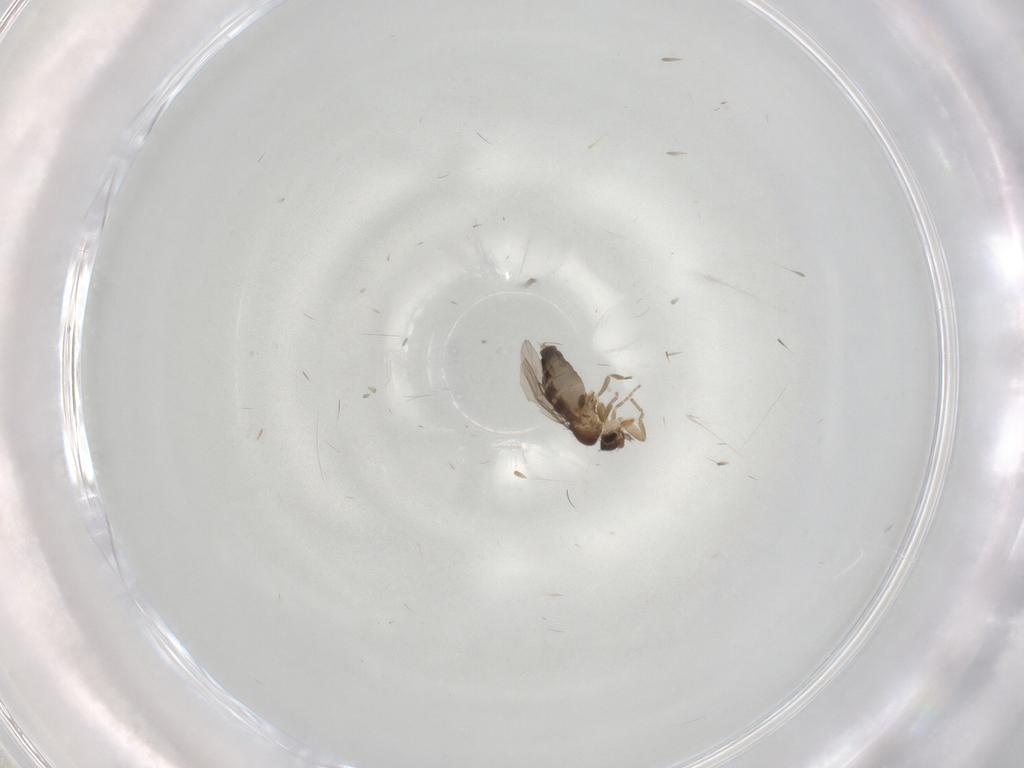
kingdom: Animalia
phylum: Arthropoda
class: Insecta
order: Diptera
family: Phoridae
